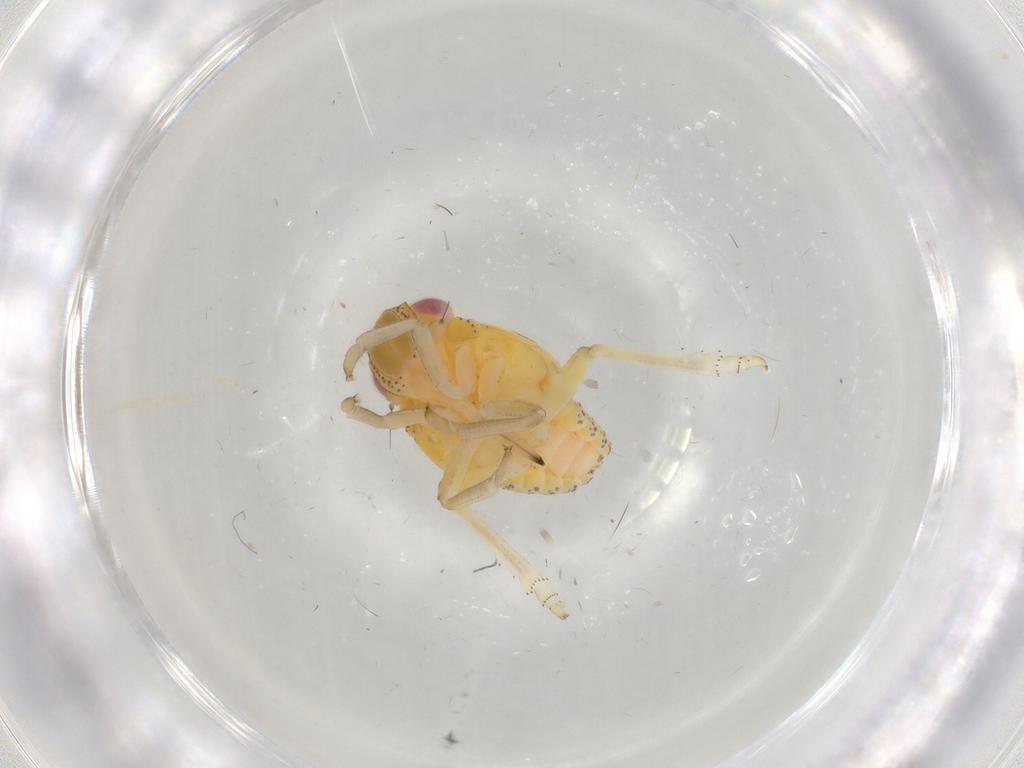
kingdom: Animalia
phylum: Arthropoda
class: Insecta
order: Hemiptera
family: Tropiduchidae
